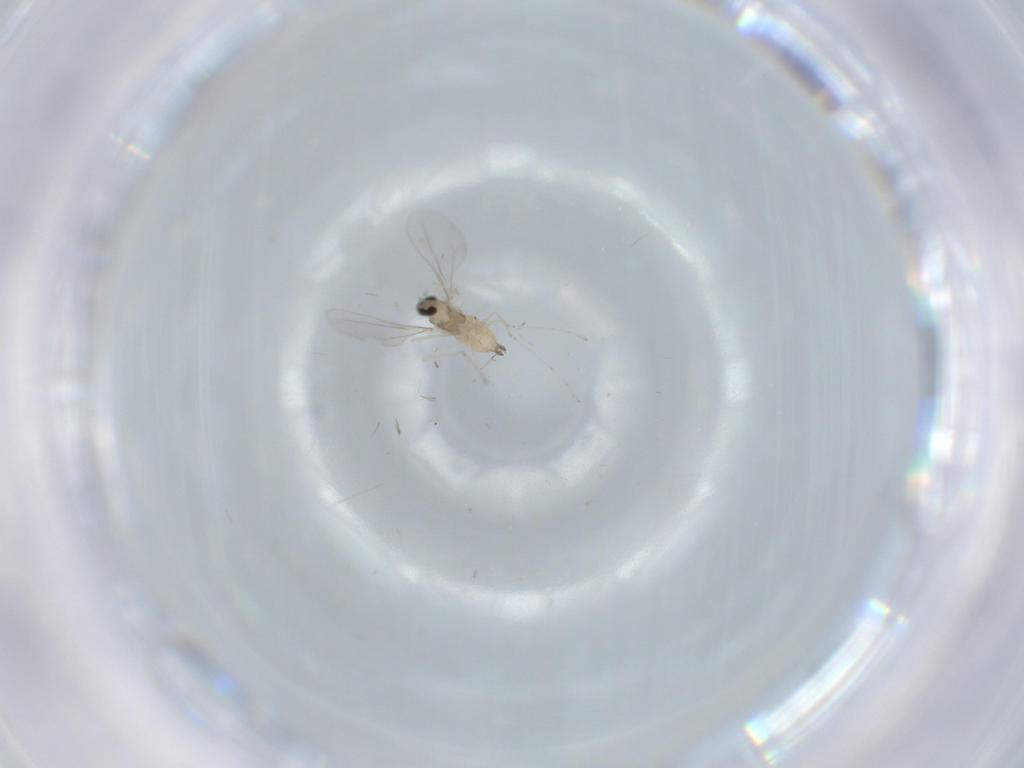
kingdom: Animalia
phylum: Arthropoda
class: Insecta
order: Diptera
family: Cecidomyiidae
